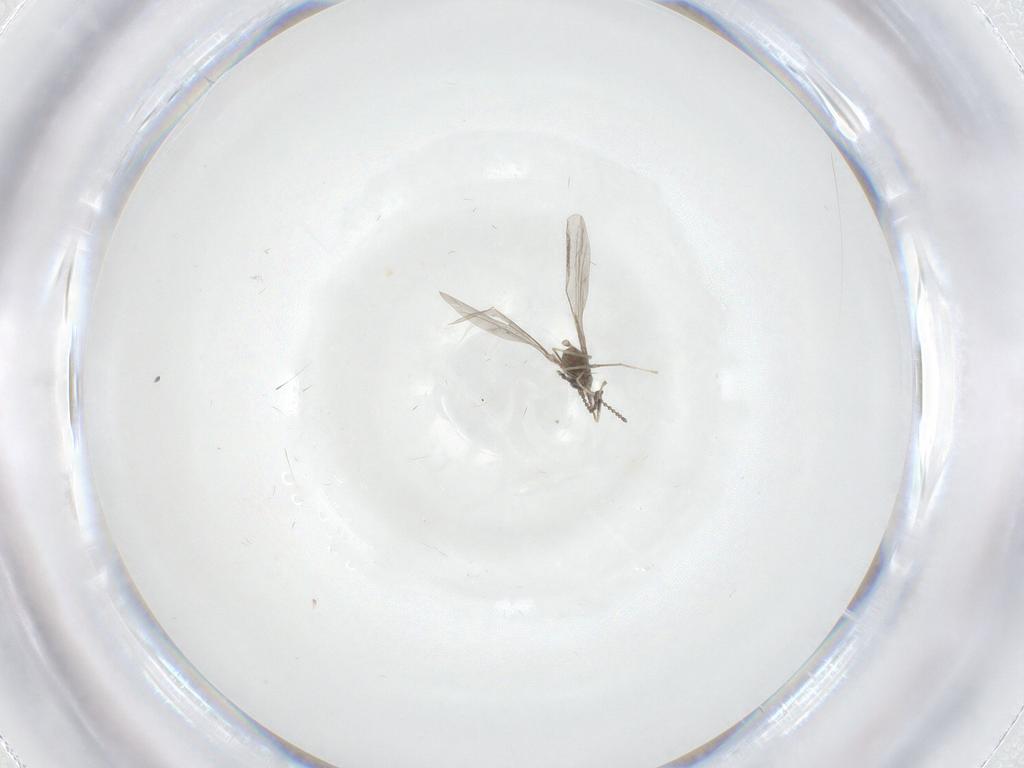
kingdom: Animalia
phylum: Arthropoda
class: Insecta
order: Diptera
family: Cecidomyiidae
